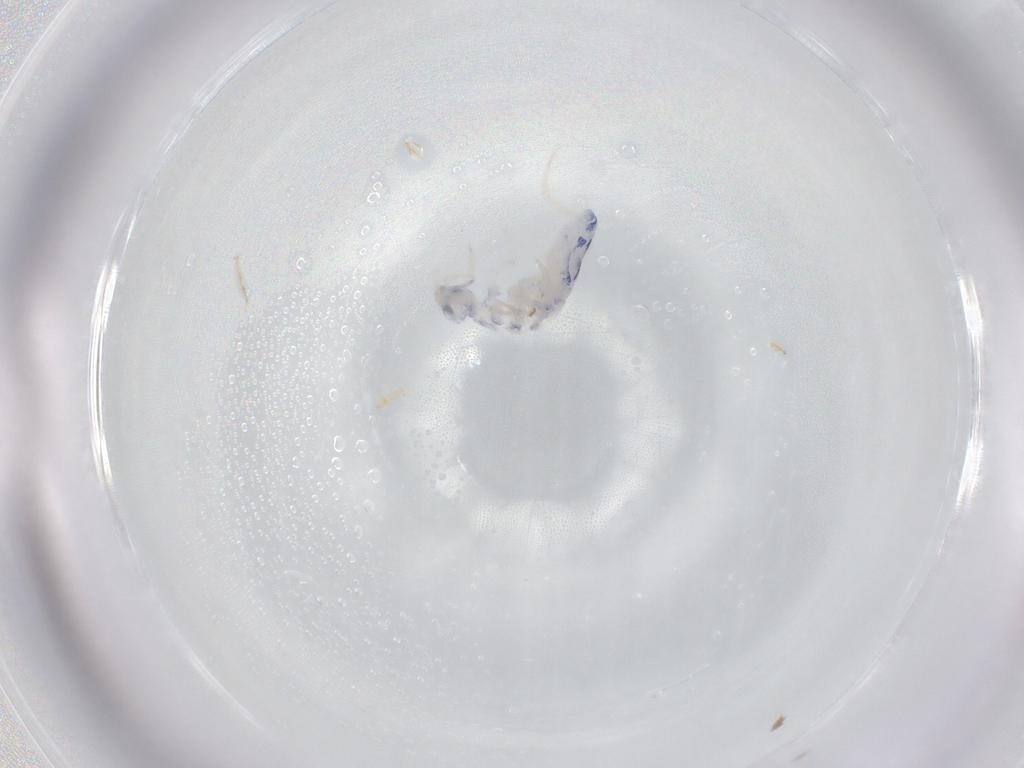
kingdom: Animalia
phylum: Arthropoda
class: Collembola
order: Entomobryomorpha
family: Entomobryidae
